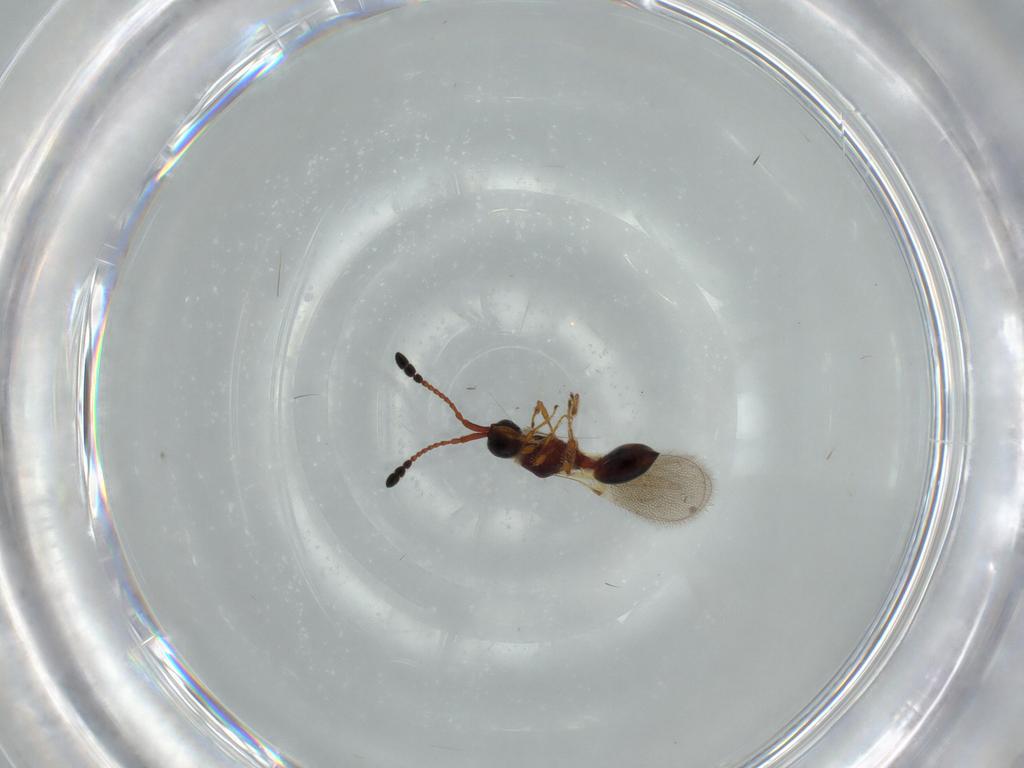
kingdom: Animalia
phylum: Arthropoda
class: Insecta
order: Hymenoptera
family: Diapriidae
